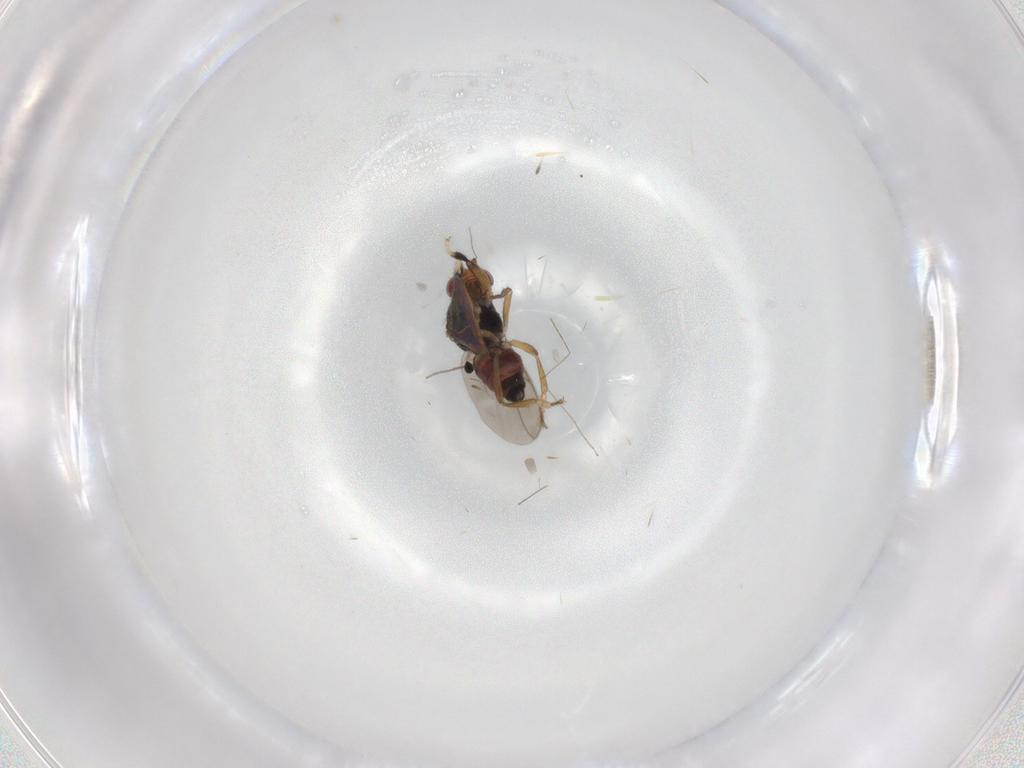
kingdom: Animalia
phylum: Arthropoda
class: Insecta
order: Diptera
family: Sphaeroceridae
